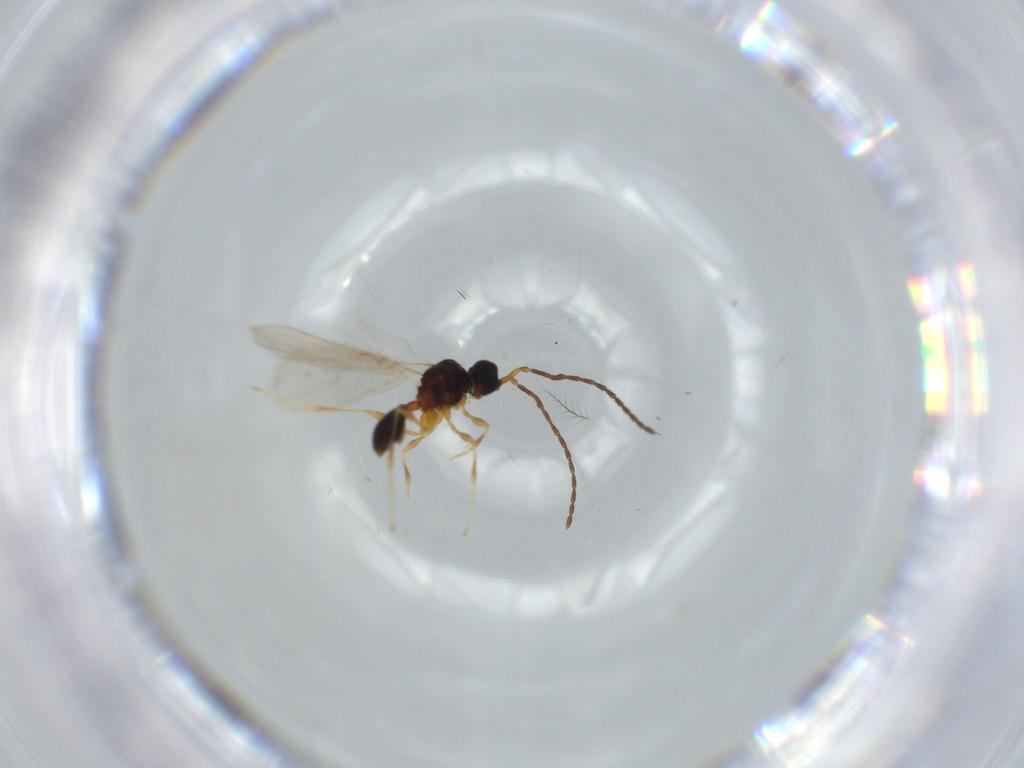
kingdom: Animalia
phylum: Arthropoda
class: Insecta
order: Hymenoptera
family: Diapriidae
